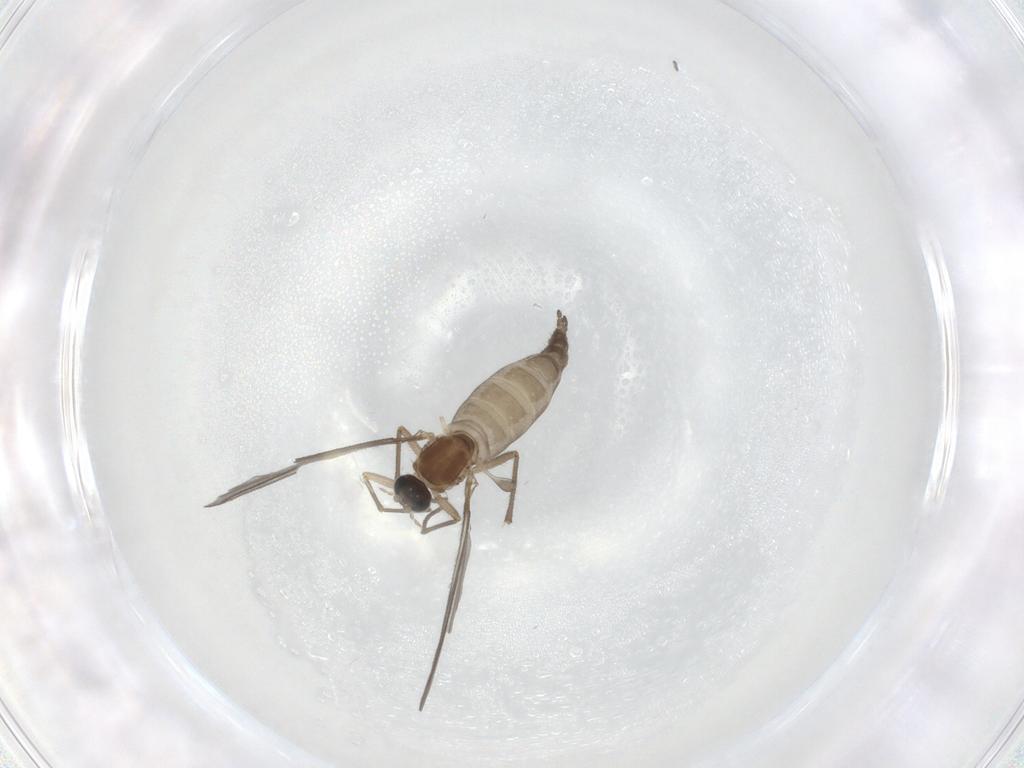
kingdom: Animalia
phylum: Arthropoda
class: Insecta
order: Diptera
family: Sciaridae
